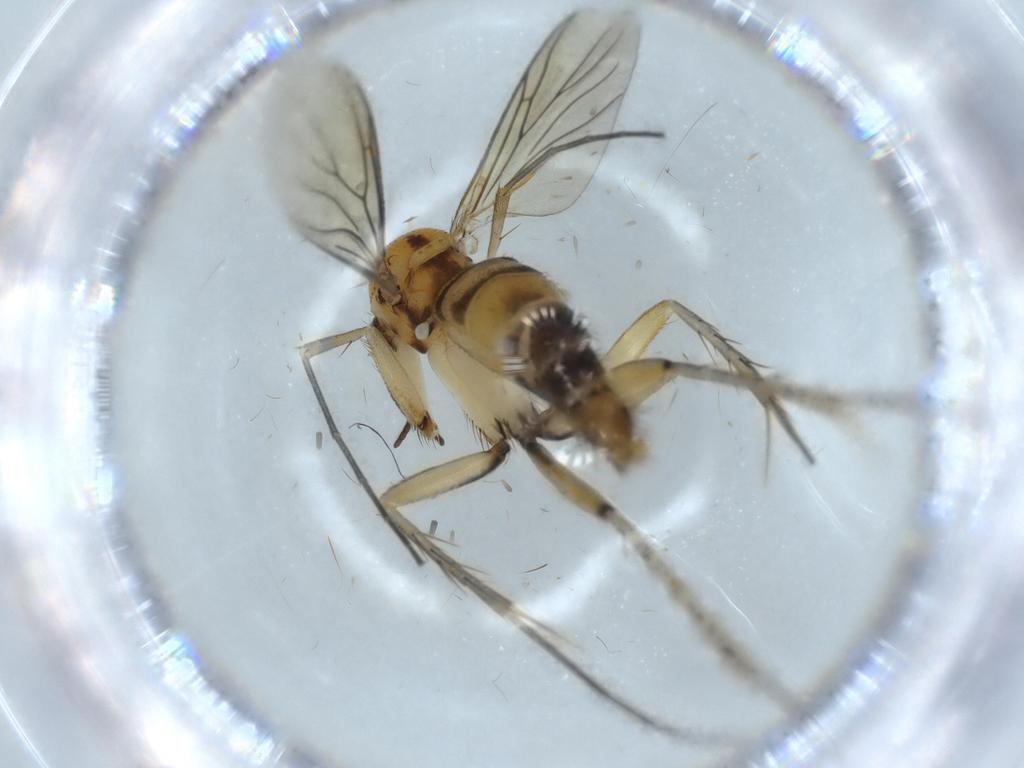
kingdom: Animalia
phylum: Arthropoda
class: Insecta
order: Diptera
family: Mycetophilidae
